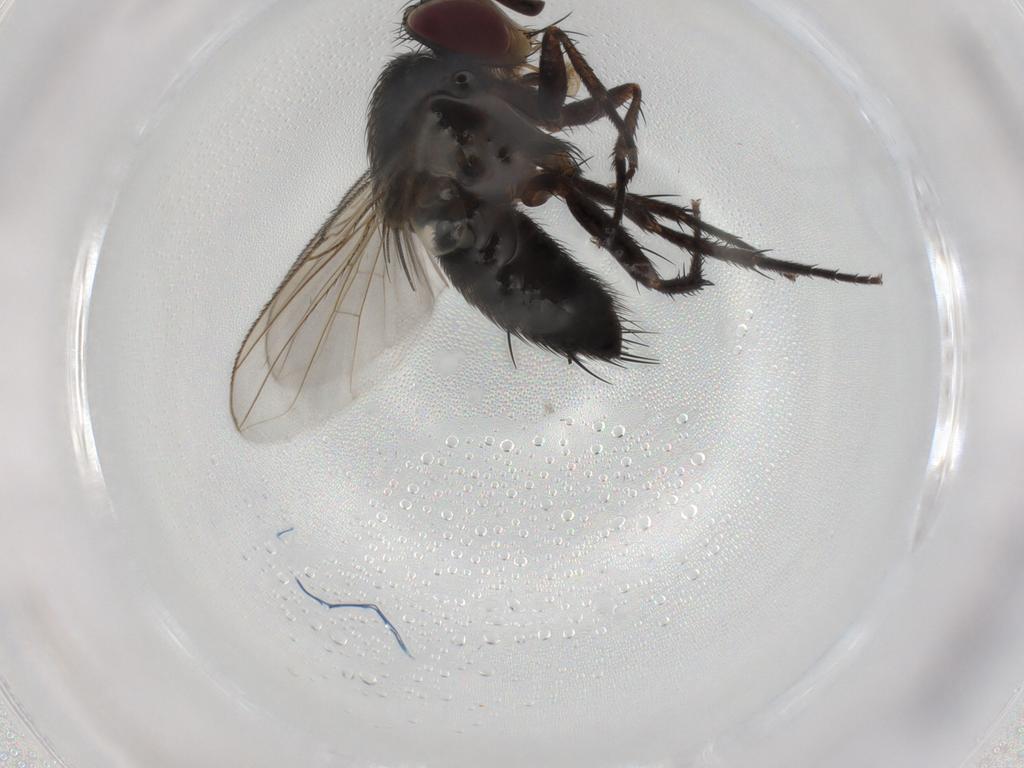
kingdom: Animalia
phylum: Arthropoda
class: Insecta
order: Diptera
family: Tachinidae
